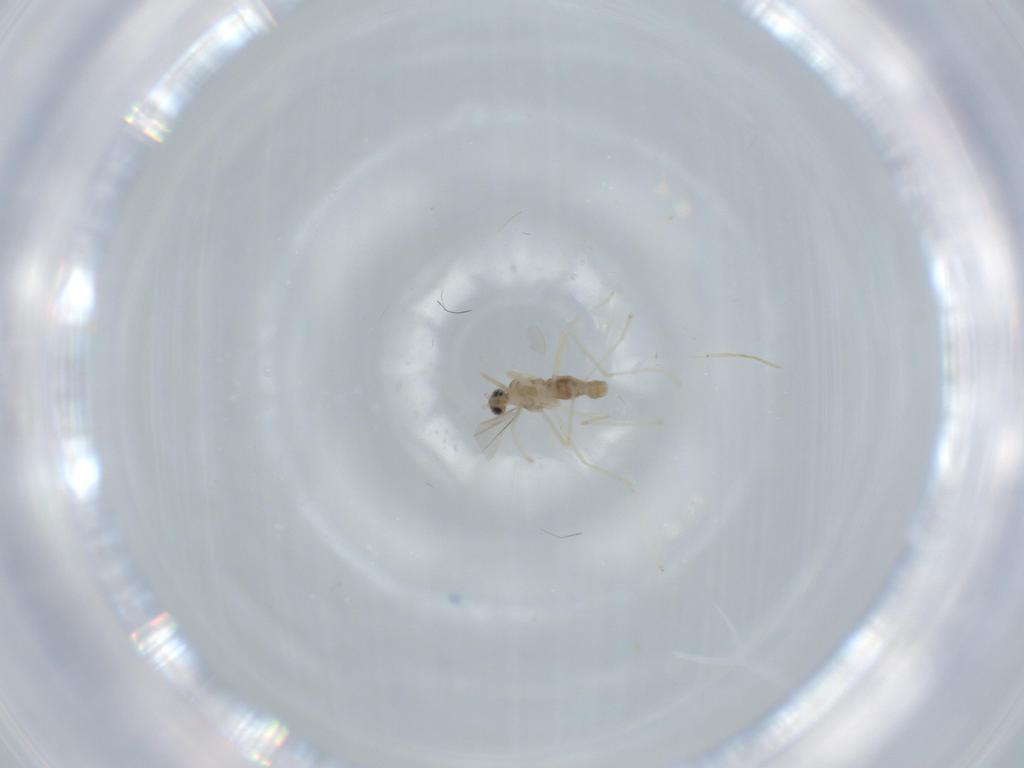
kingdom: Animalia
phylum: Arthropoda
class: Insecta
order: Diptera
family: Cecidomyiidae
